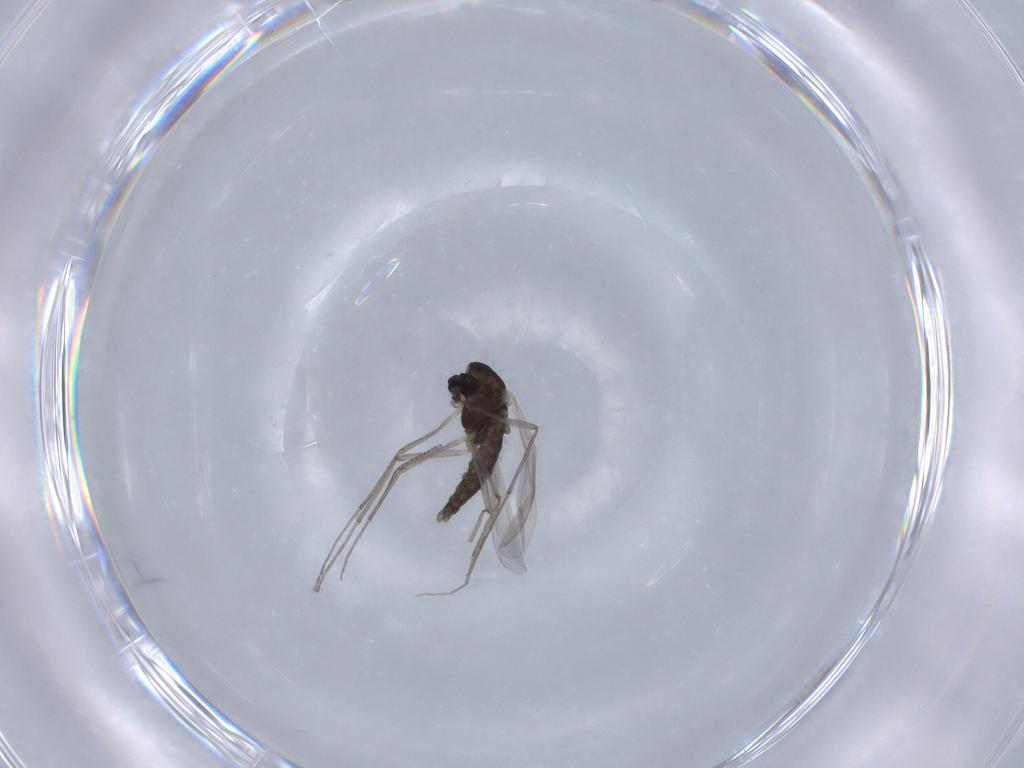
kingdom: Animalia
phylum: Arthropoda
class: Insecta
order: Diptera
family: Chironomidae
